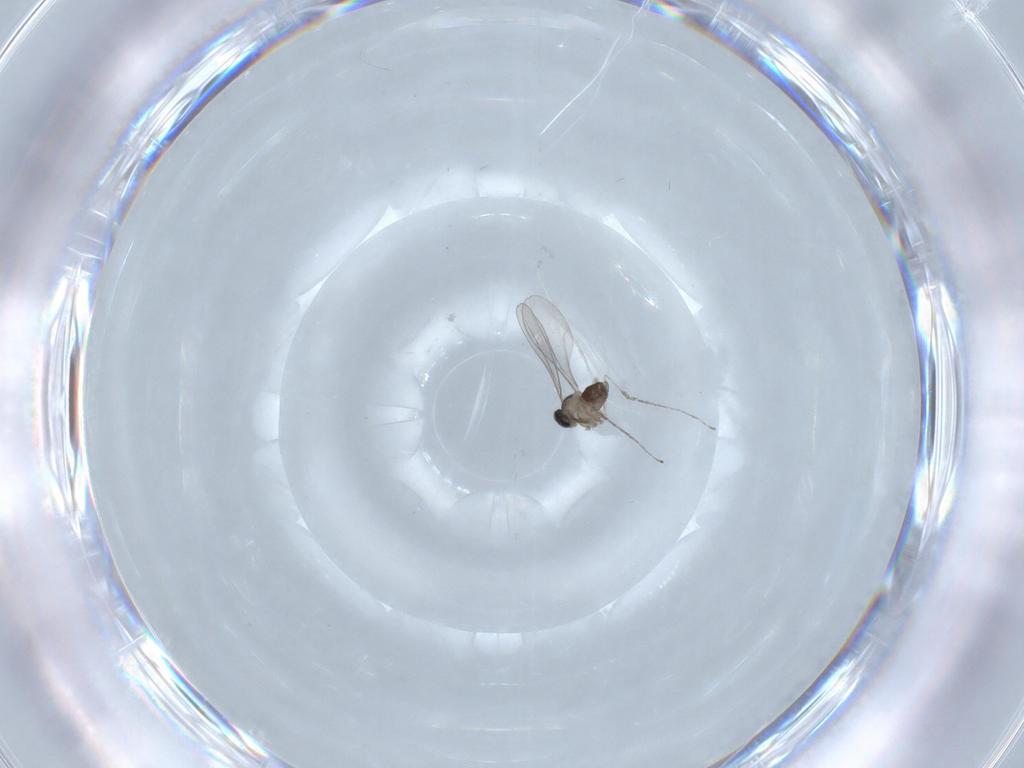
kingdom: Animalia
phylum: Arthropoda
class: Insecta
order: Diptera
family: Cecidomyiidae
